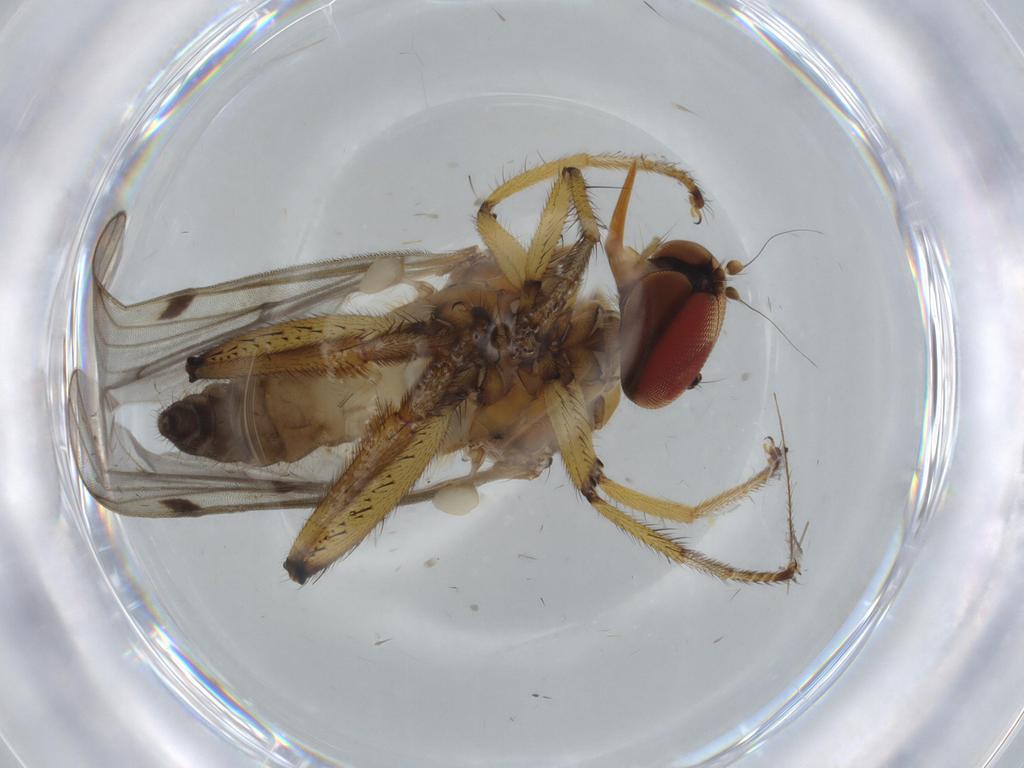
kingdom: Animalia
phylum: Arthropoda
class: Insecta
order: Diptera
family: Hybotidae
